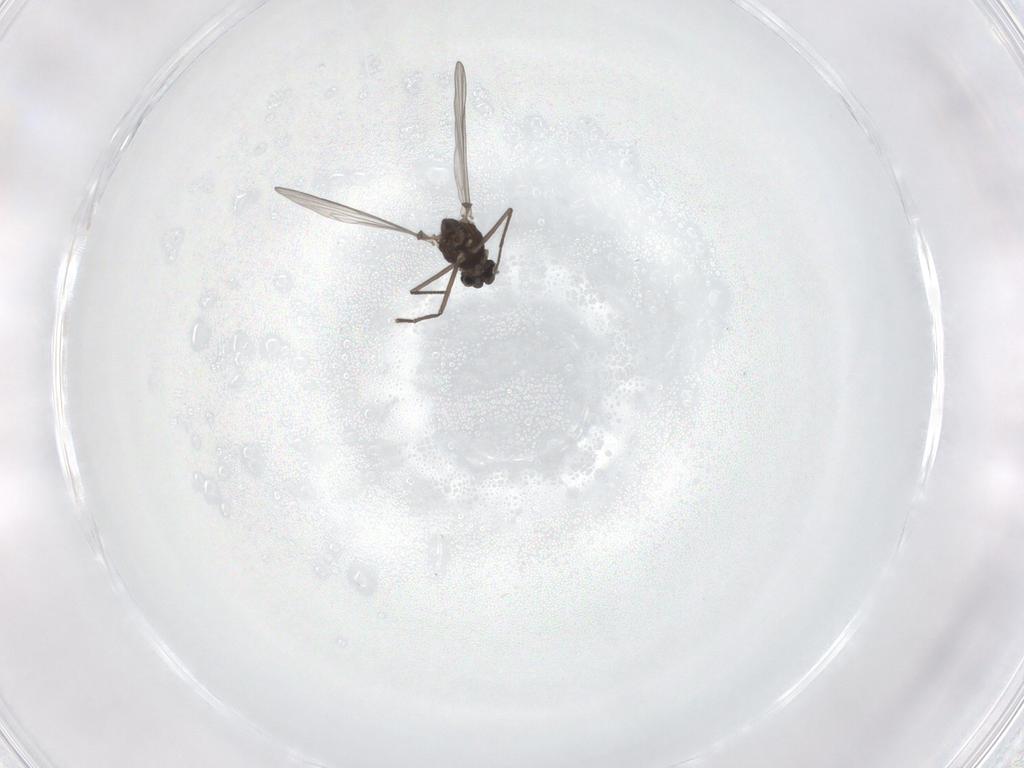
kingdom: Animalia
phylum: Arthropoda
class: Insecta
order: Diptera
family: Chironomidae
